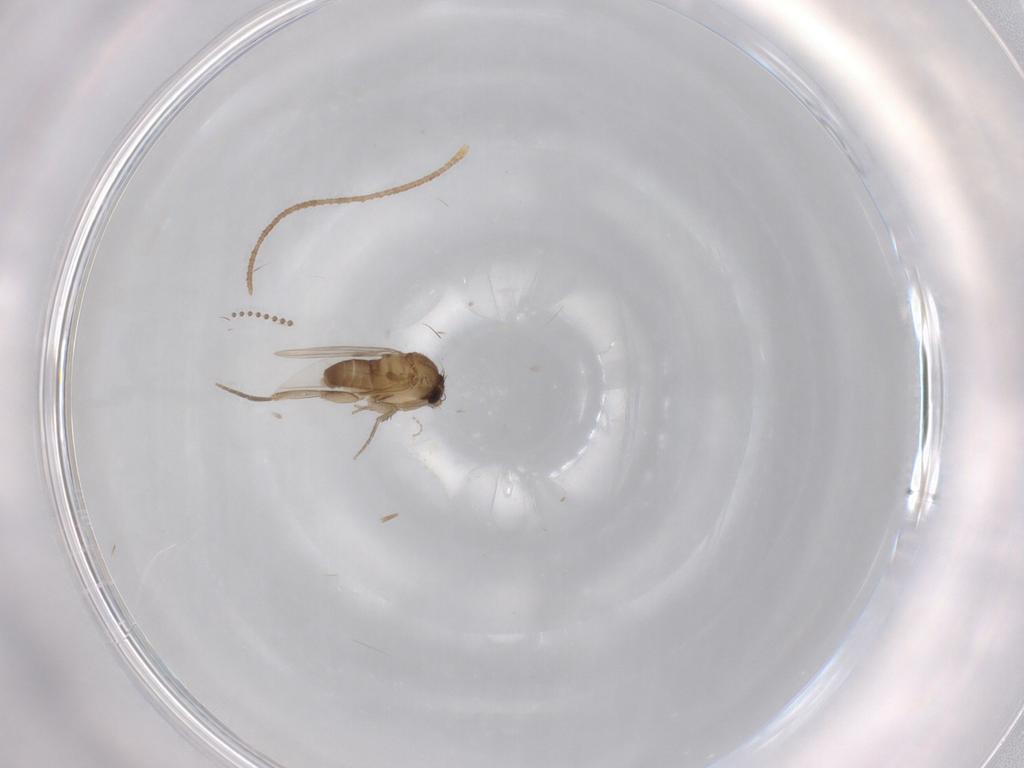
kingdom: Animalia
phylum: Arthropoda
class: Insecta
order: Diptera
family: Phoridae
